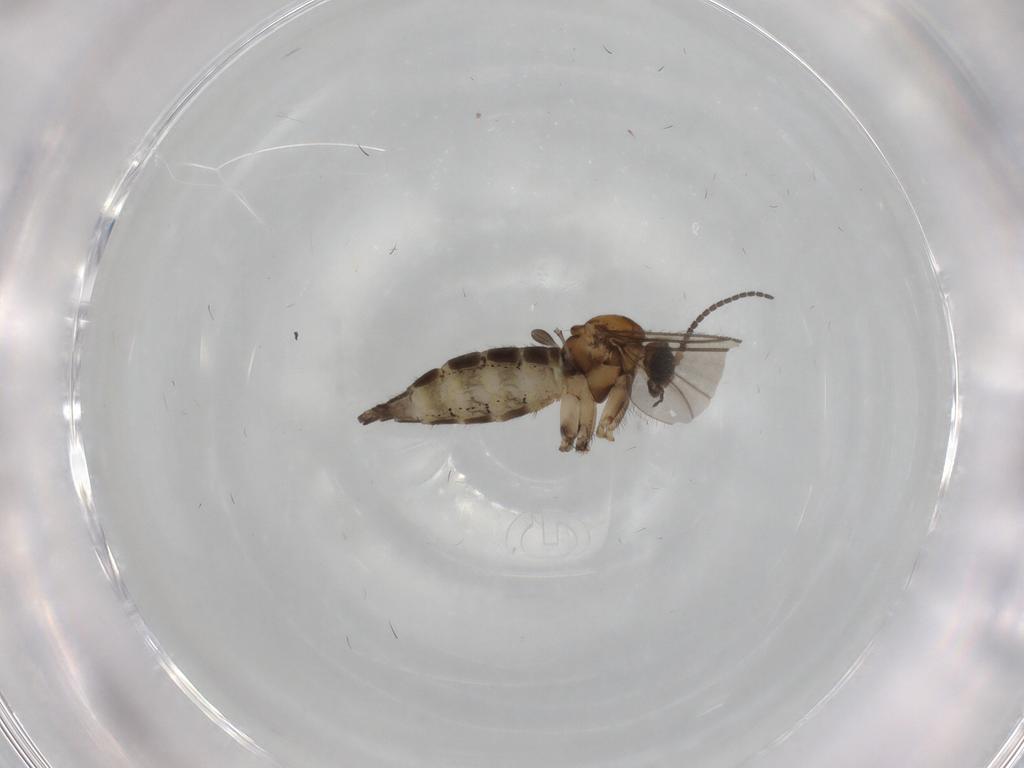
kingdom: Animalia
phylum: Arthropoda
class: Insecta
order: Diptera
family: Sciaridae
